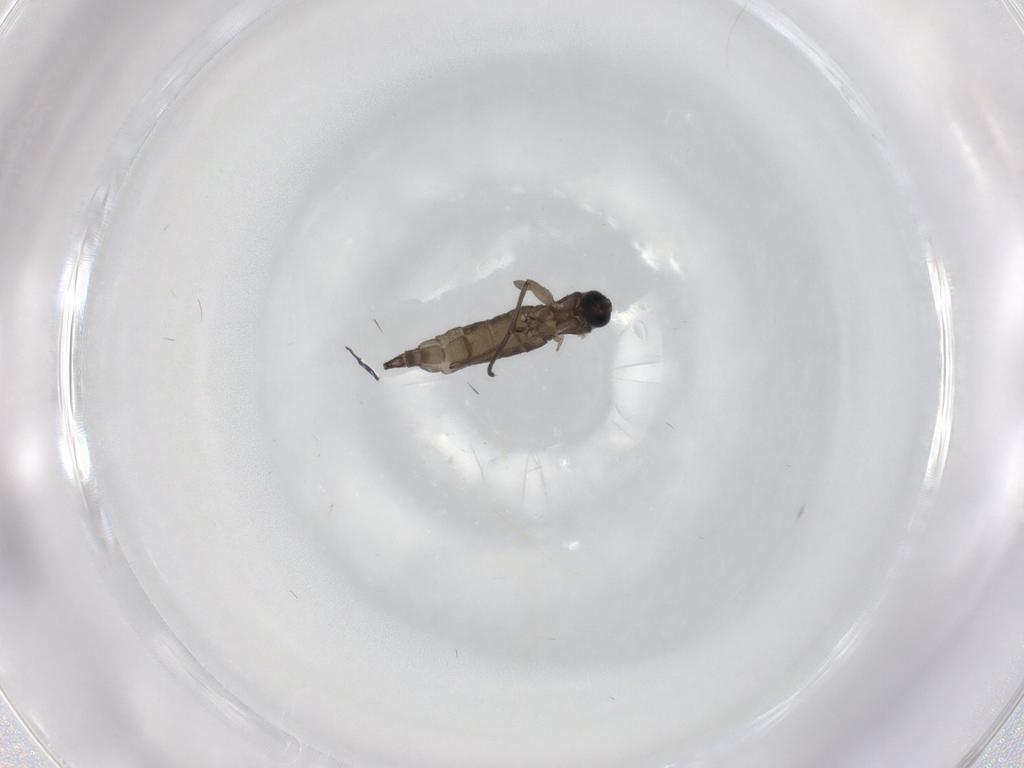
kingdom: Animalia
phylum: Arthropoda
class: Insecta
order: Diptera
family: Sciaridae
